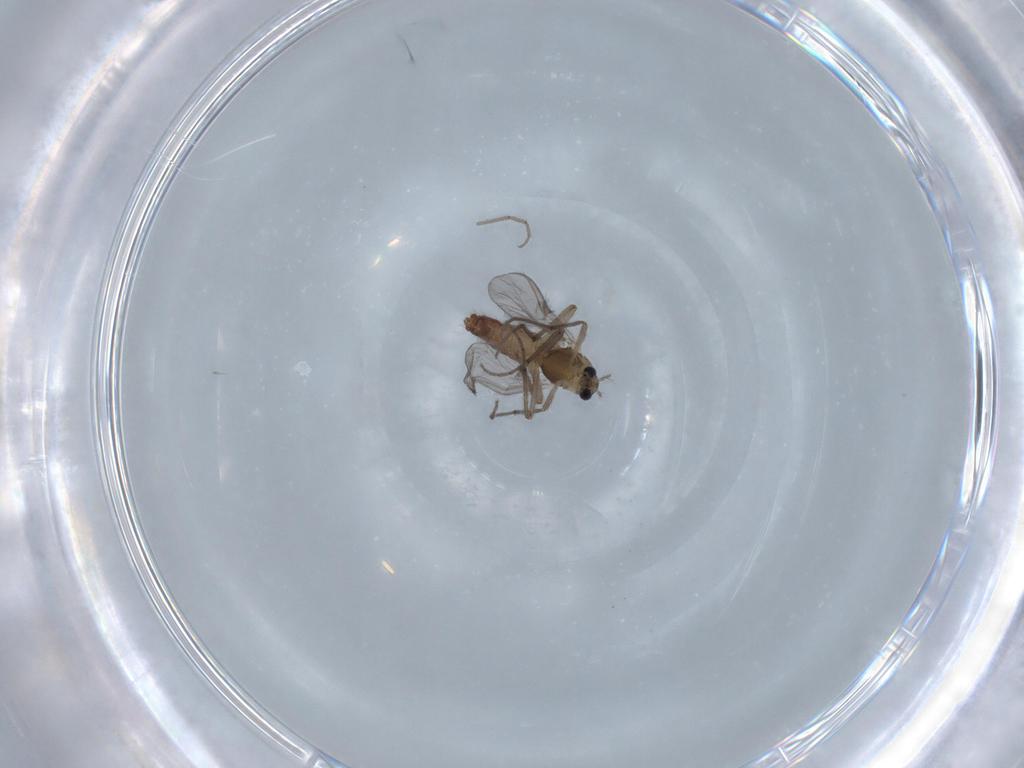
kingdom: Animalia
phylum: Arthropoda
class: Insecta
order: Diptera
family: Chironomidae
